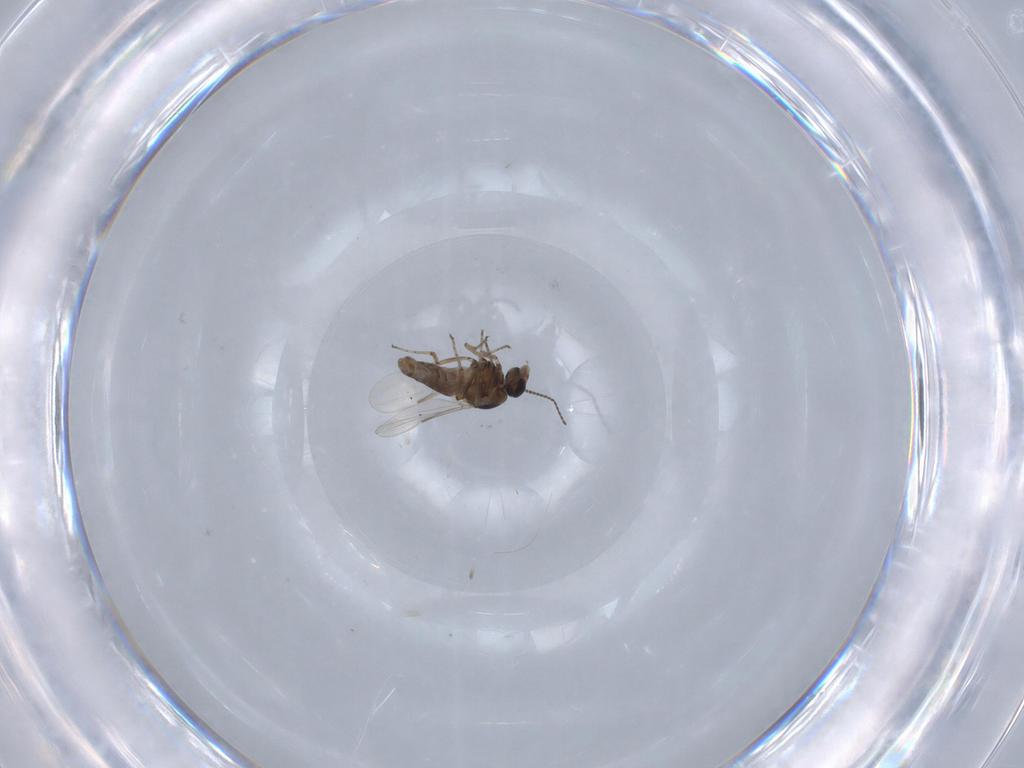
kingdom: Animalia
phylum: Arthropoda
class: Insecta
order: Diptera
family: Ceratopogonidae
